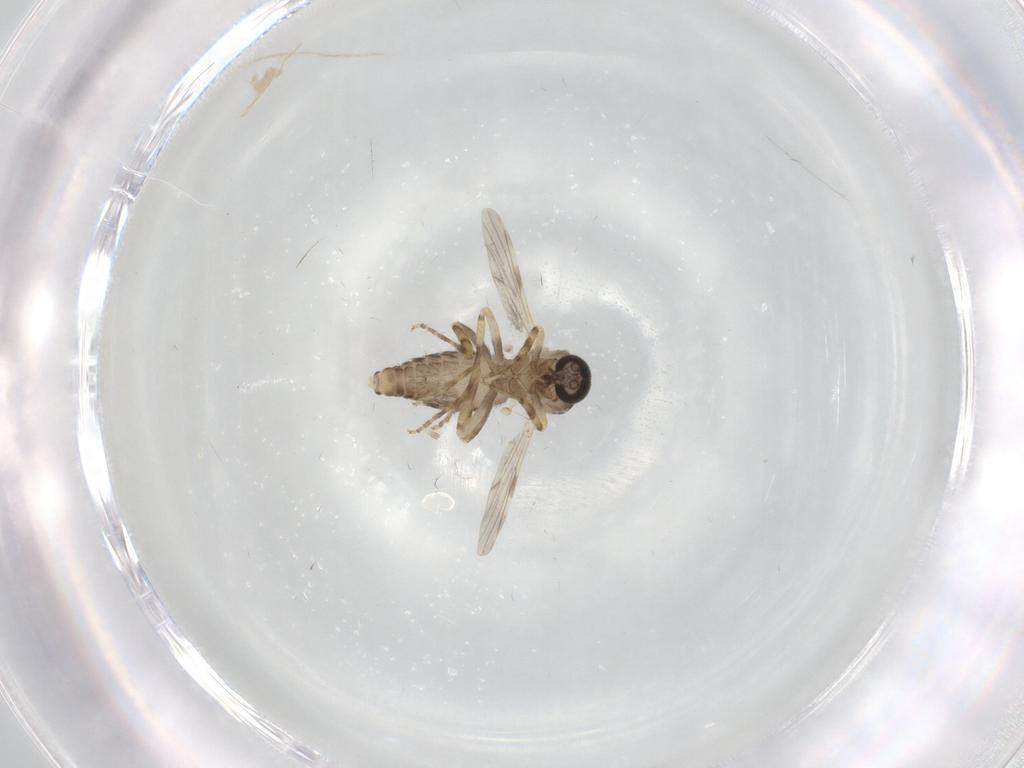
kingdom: Animalia
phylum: Arthropoda
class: Insecta
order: Diptera
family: Ceratopogonidae
